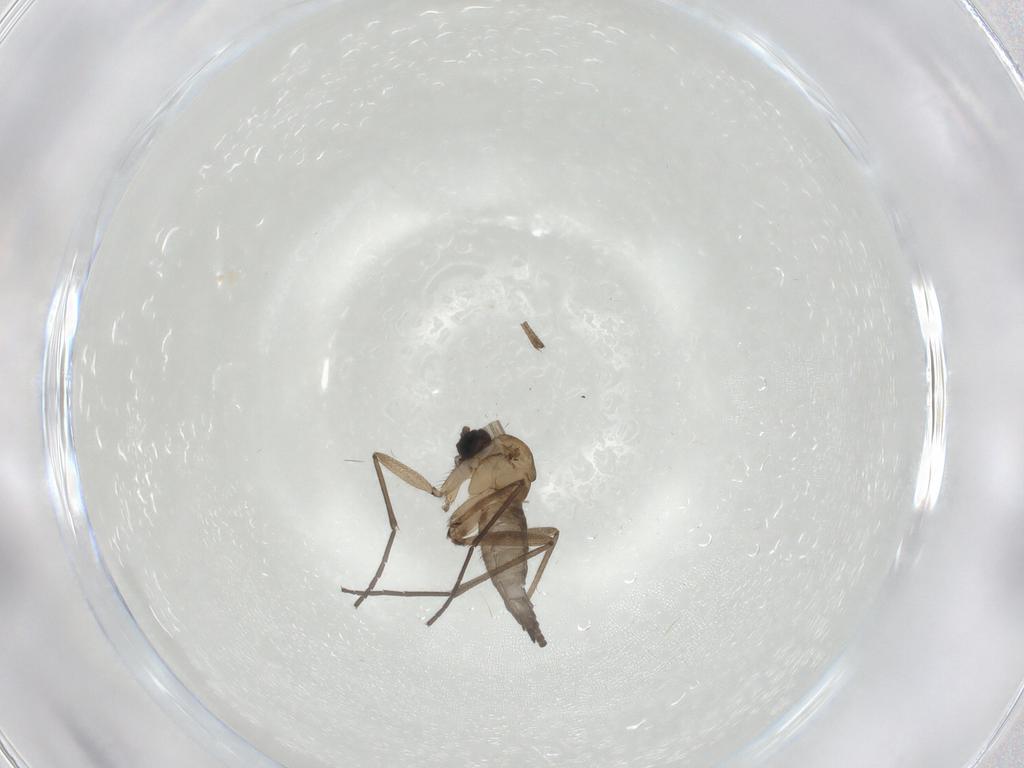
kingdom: Animalia
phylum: Arthropoda
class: Insecta
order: Diptera
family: Sciaridae
